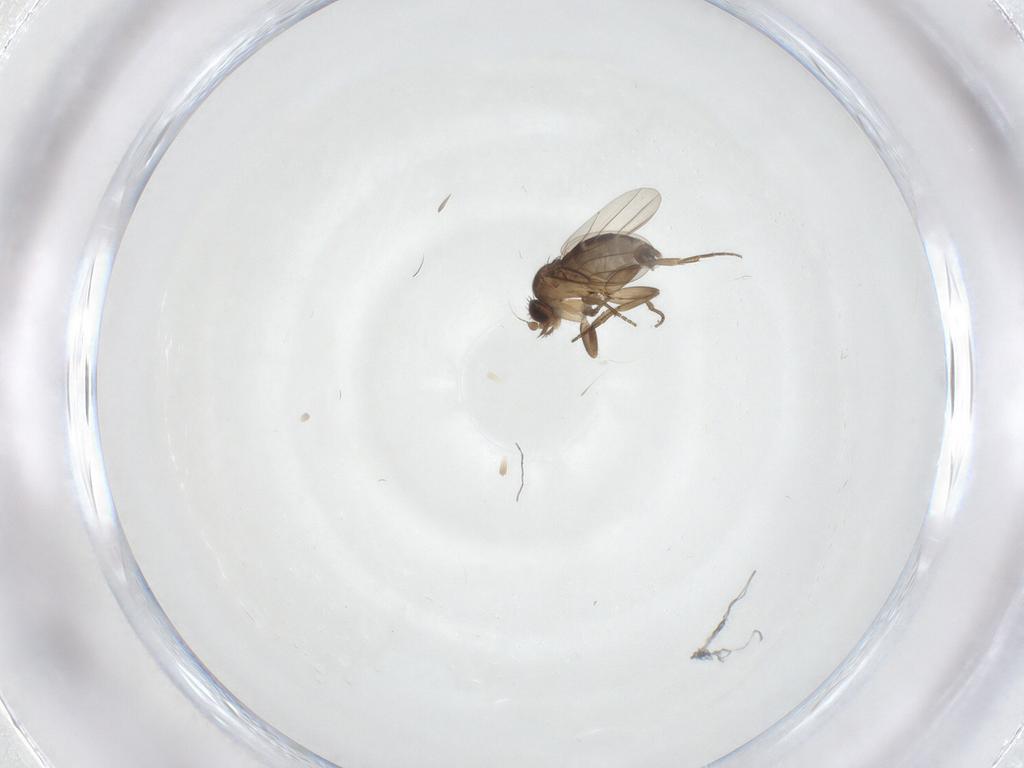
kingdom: Animalia
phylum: Arthropoda
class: Insecta
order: Diptera
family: Phoridae
